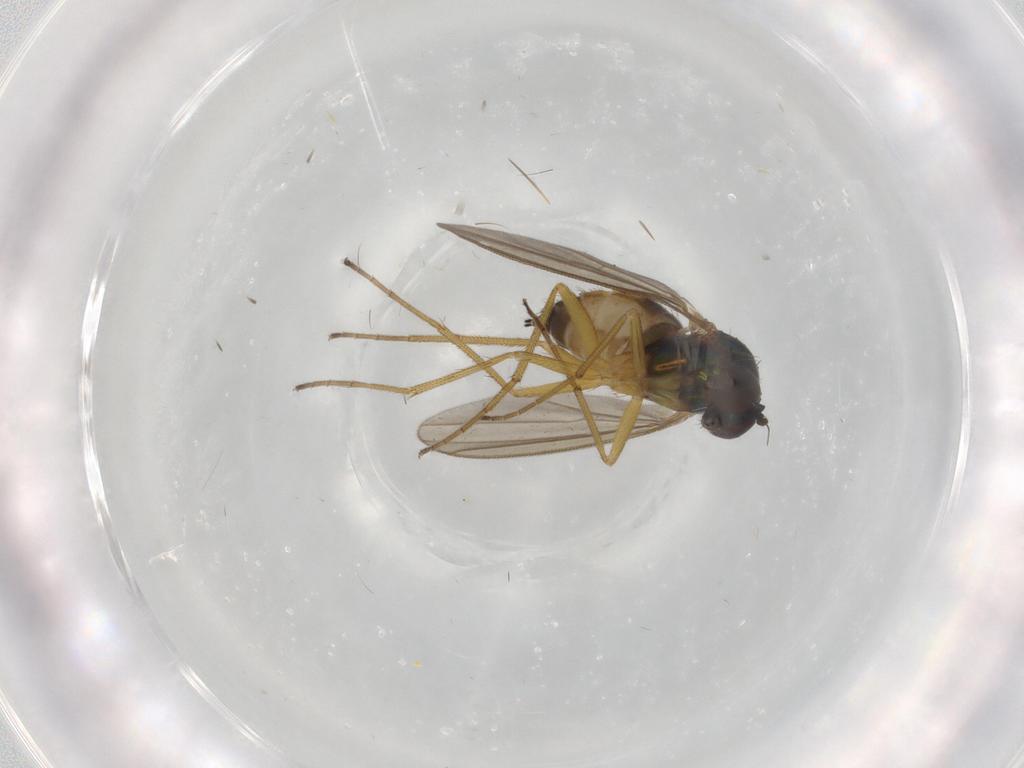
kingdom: Animalia
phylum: Arthropoda
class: Insecta
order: Diptera
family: Dolichopodidae
